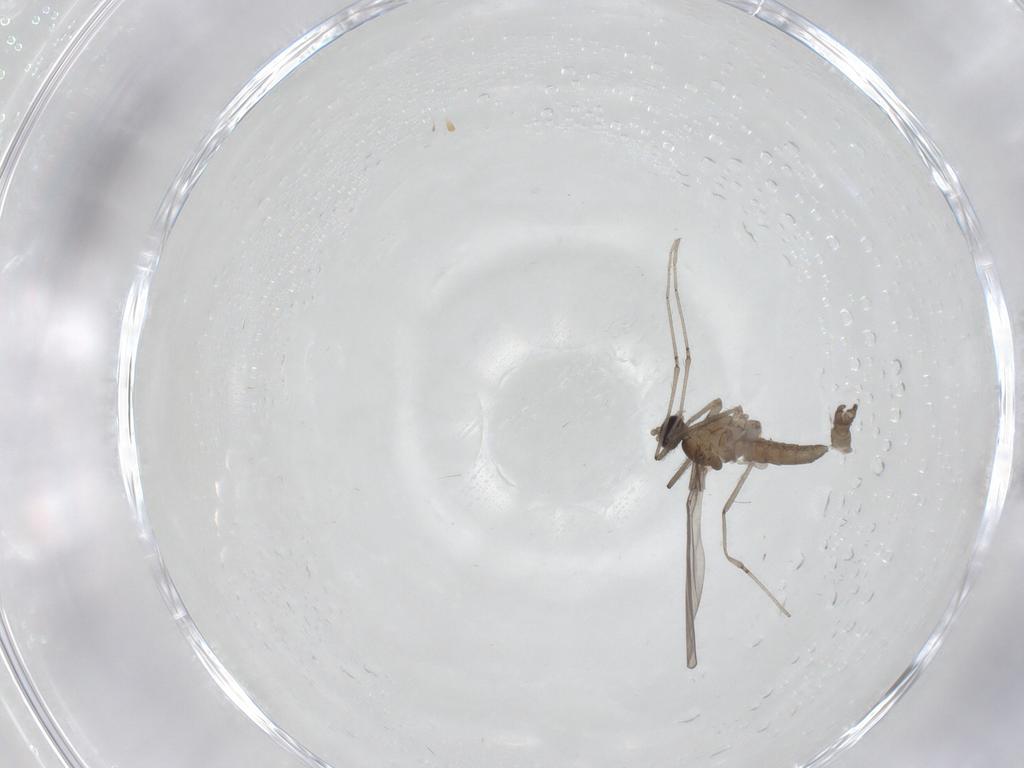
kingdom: Animalia
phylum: Arthropoda
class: Insecta
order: Diptera
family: Cecidomyiidae
